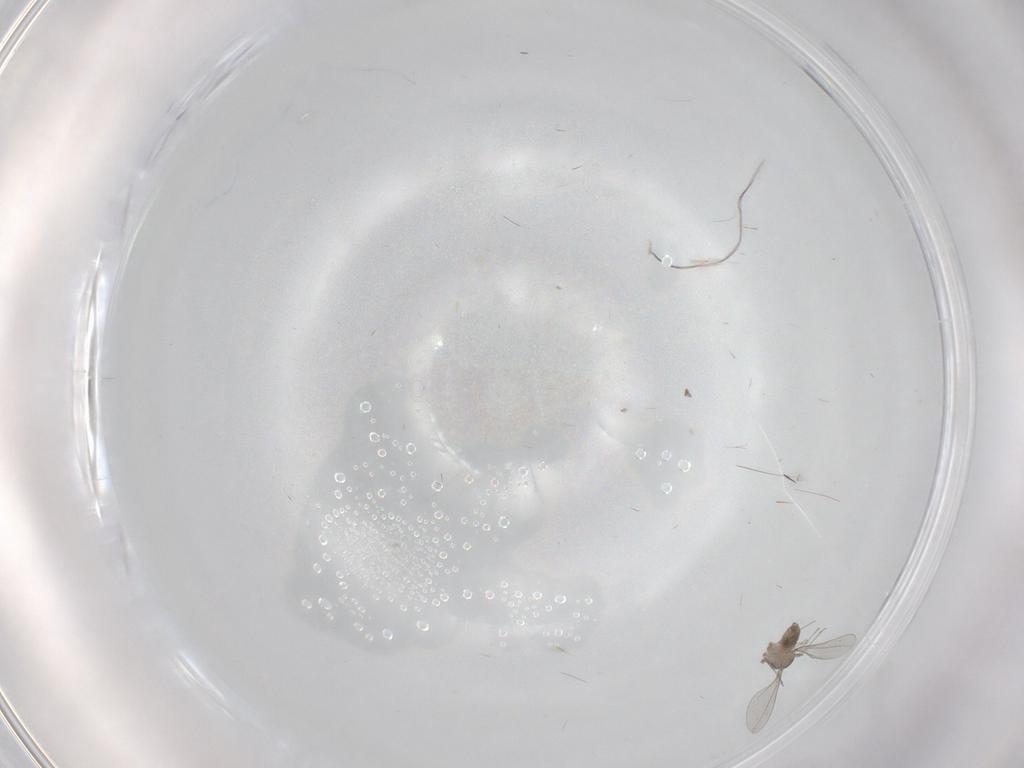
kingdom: Animalia
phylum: Arthropoda
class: Insecta
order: Diptera
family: Cecidomyiidae
